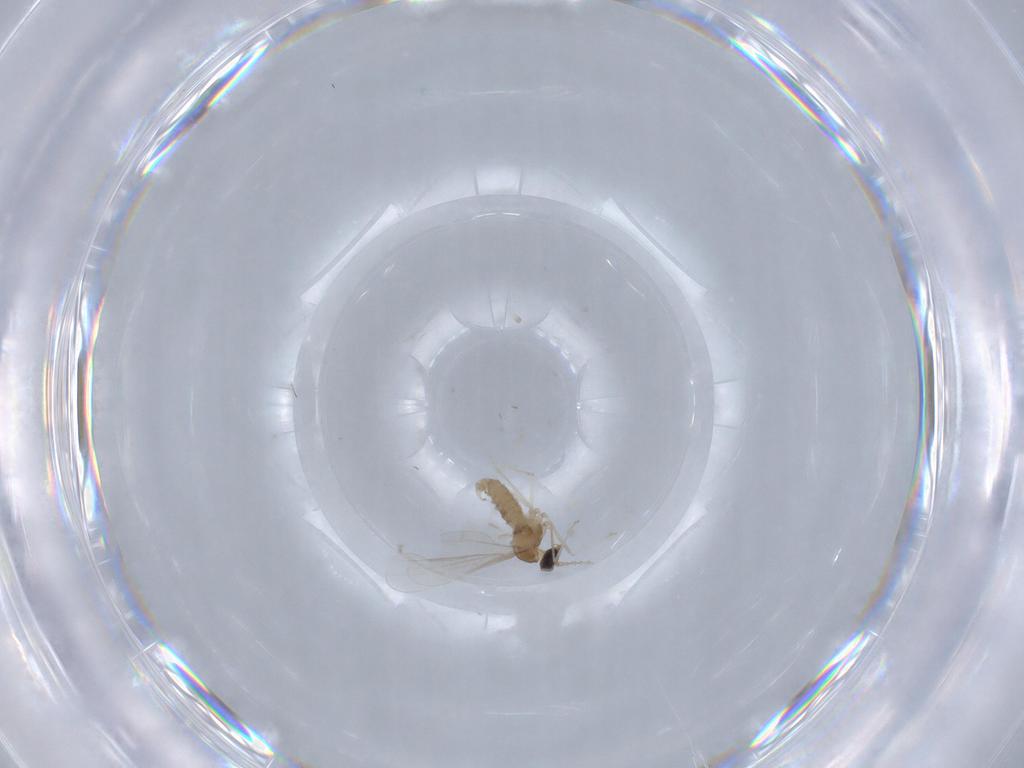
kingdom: Animalia
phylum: Arthropoda
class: Insecta
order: Diptera
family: Cecidomyiidae
